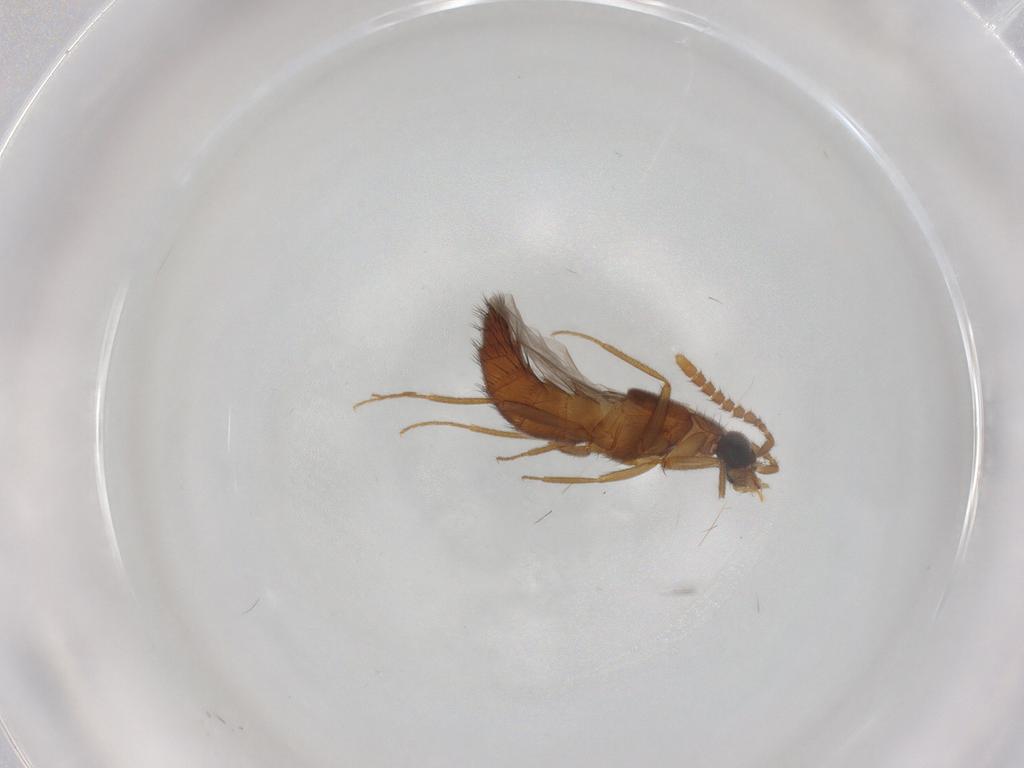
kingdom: Animalia
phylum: Arthropoda
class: Insecta
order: Coleoptera
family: Staphylinidae
